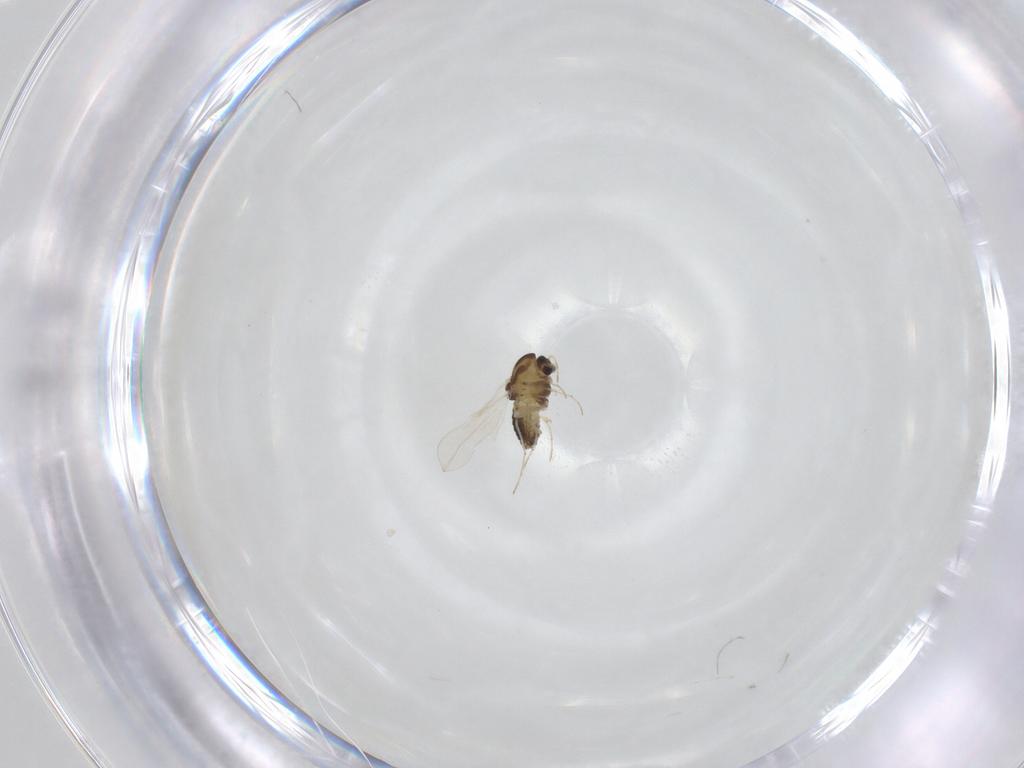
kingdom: Animalia
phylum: Arthropoda
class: Insecta
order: Diptera
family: Chironomidae
